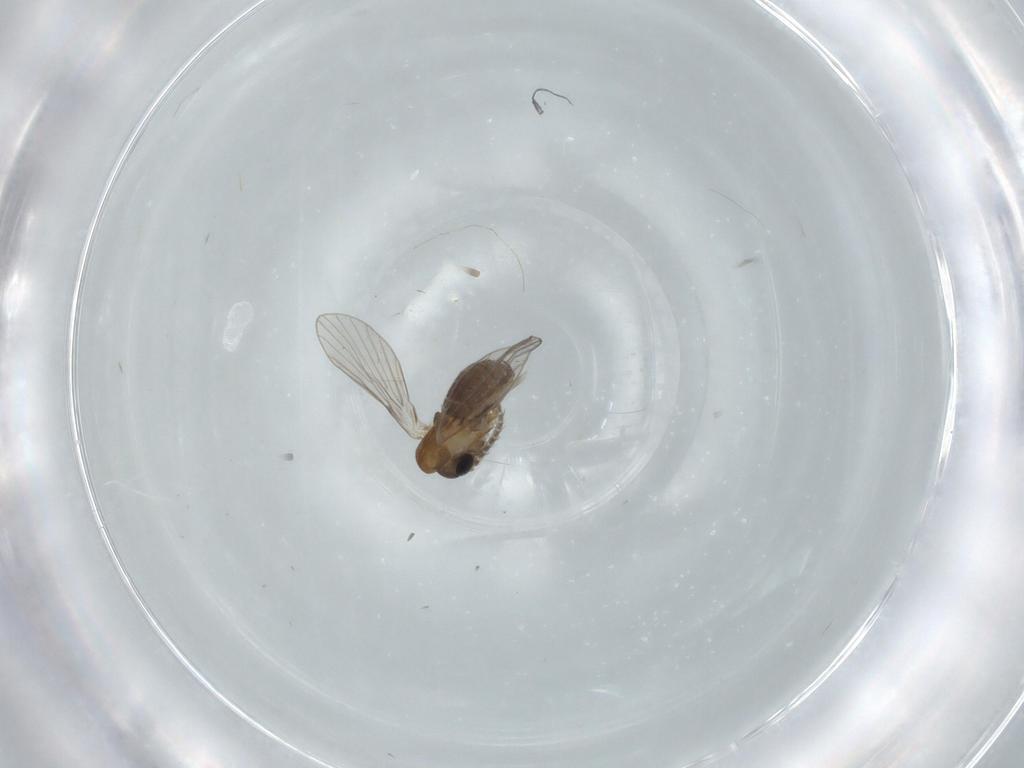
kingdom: Animalia
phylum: Arthropoda
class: Insecta
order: Diptera
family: Psychodidae
